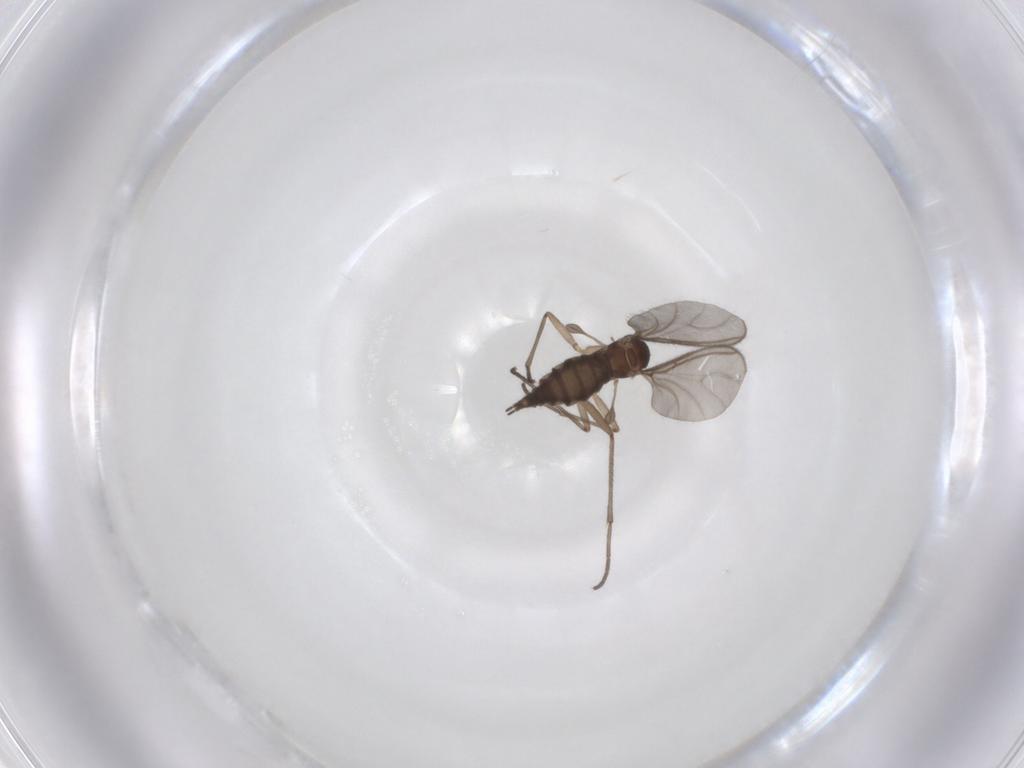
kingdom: Animalia
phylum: Arthropoda
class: Insecta
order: Diptera
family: Sciaridae
